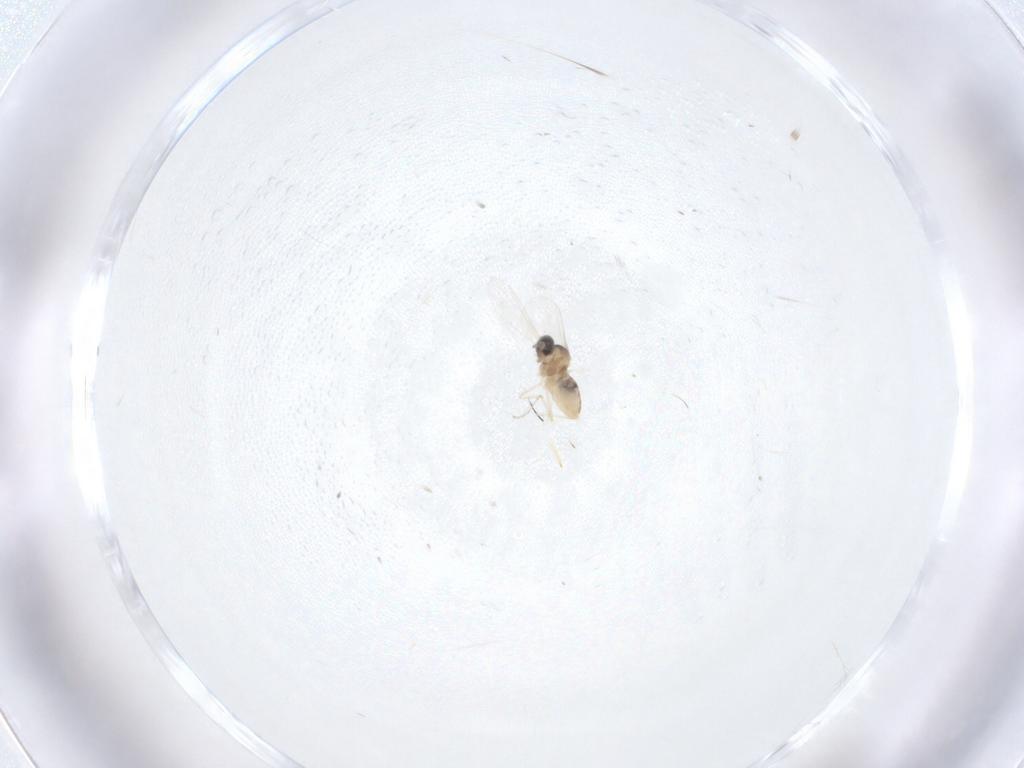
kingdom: Animalia
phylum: Arthropoda
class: Insecta
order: Diptera
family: Cecidomyiidae
